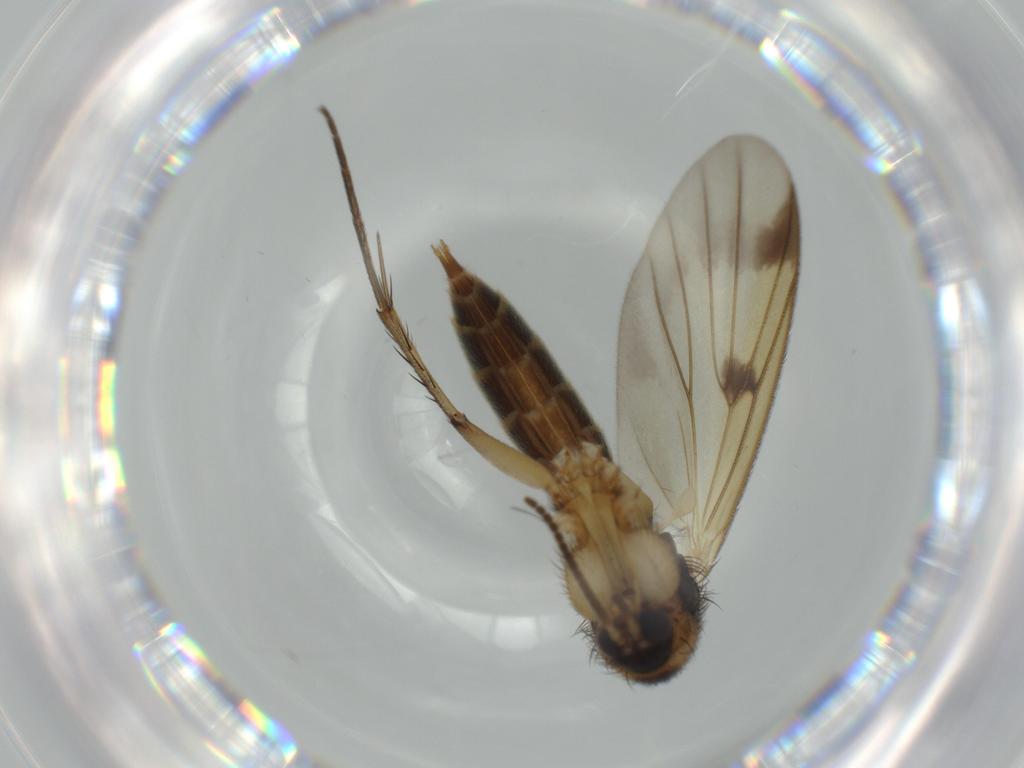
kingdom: Animalia
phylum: Arthropoda
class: Insecta
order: Diptera
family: Mycetophilidae
